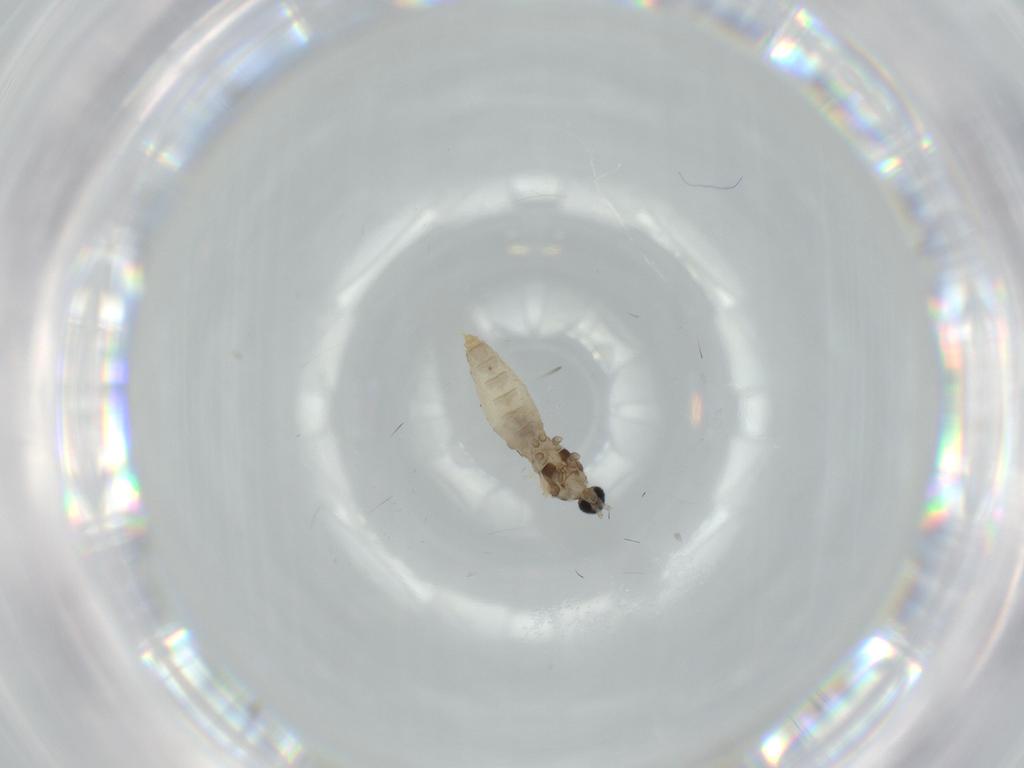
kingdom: Animalia
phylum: Arthropoda
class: Insecta
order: Diptera
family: Cecidomyiidae
